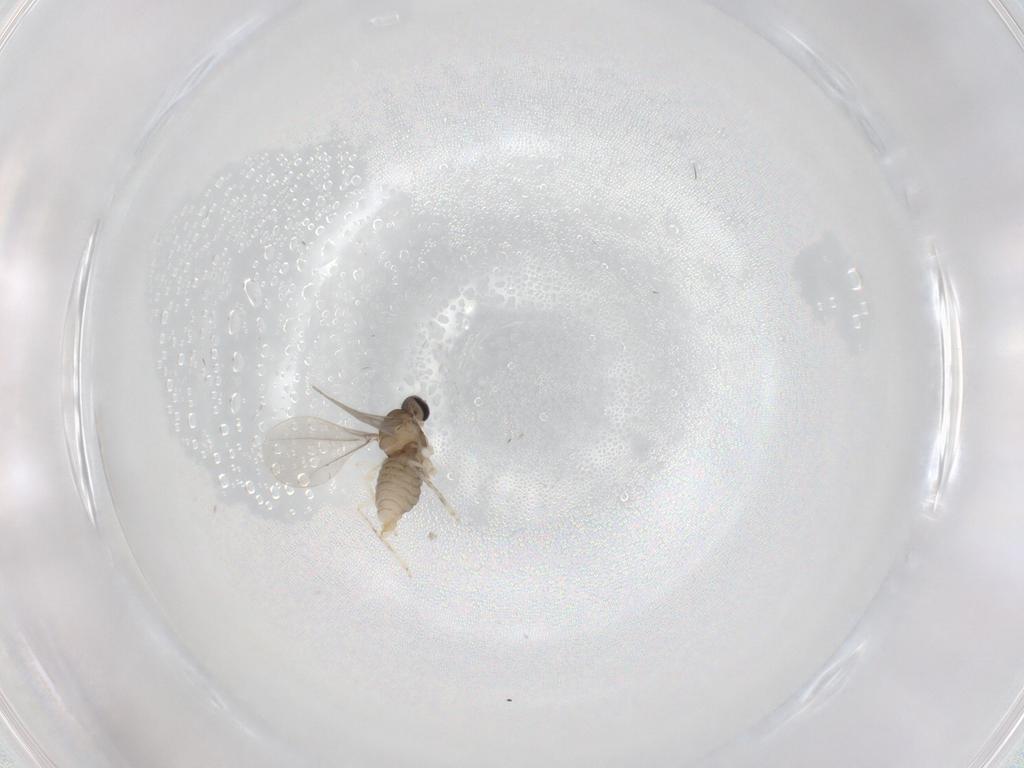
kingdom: Animalia
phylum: Arthropoda
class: Insecta
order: Diptera
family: Cecidomyiidae
